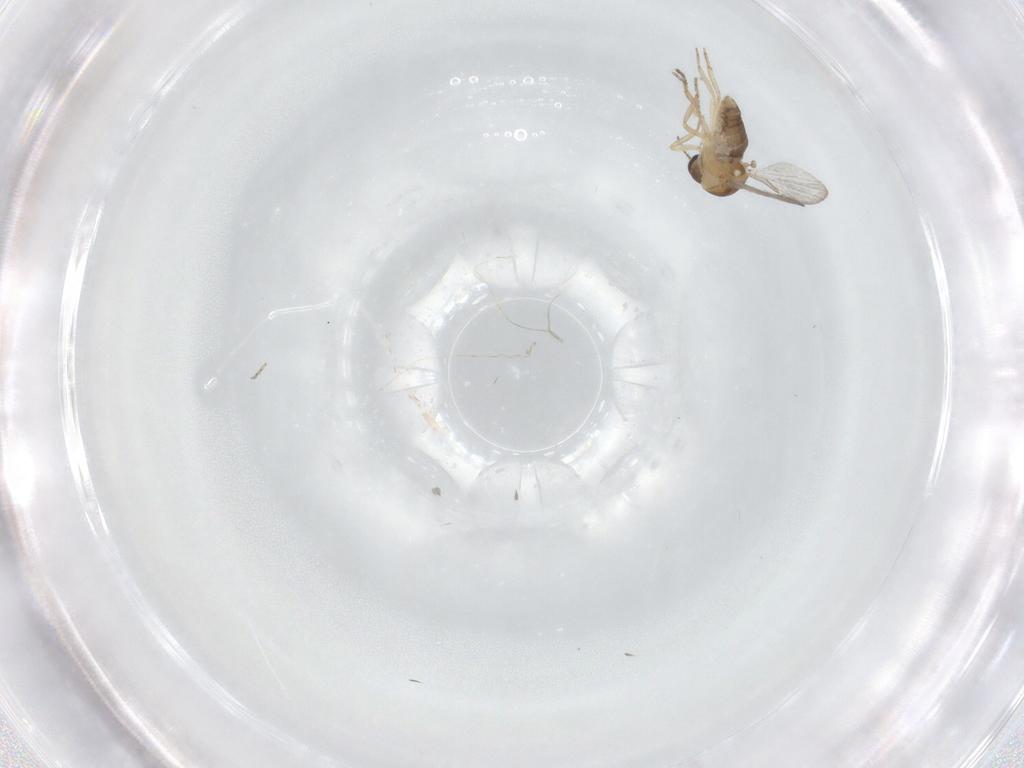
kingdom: Animalia
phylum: Arthropoda
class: Insecta
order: Diptera
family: Ceratopogonidae
